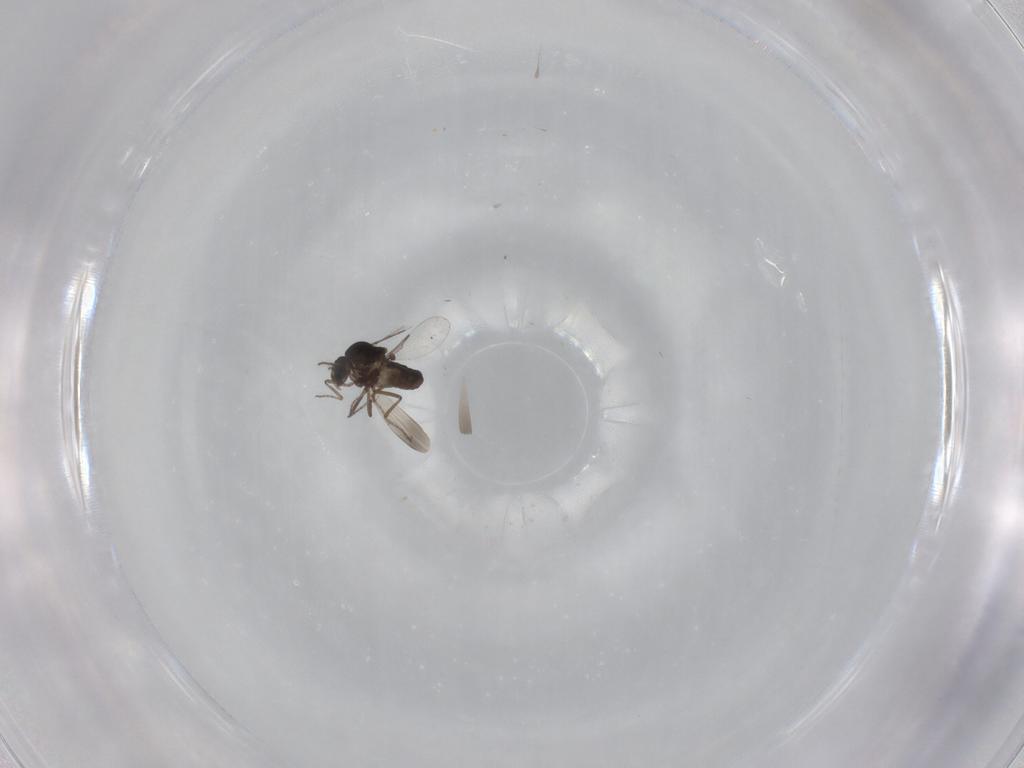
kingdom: Animalia
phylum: Arthropoda
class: Insecta
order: Diptera
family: Ceratopogonidae
